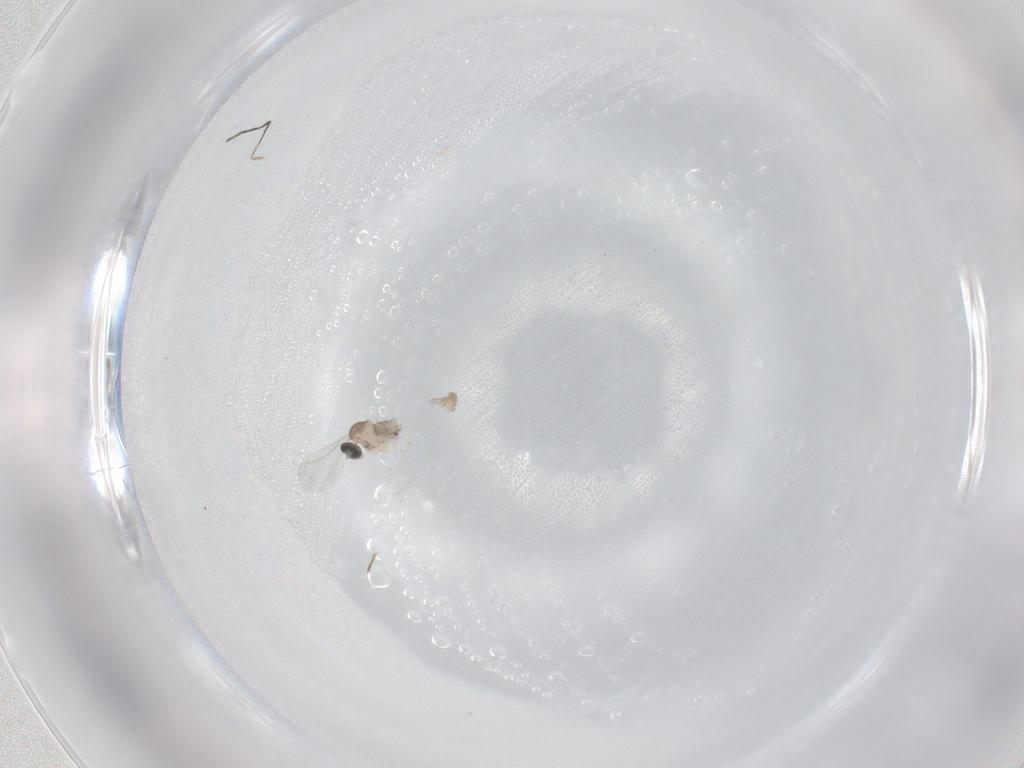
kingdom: Animalia
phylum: Arthropoda
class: Insecta
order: Diptera
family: Cecidomyiidae
